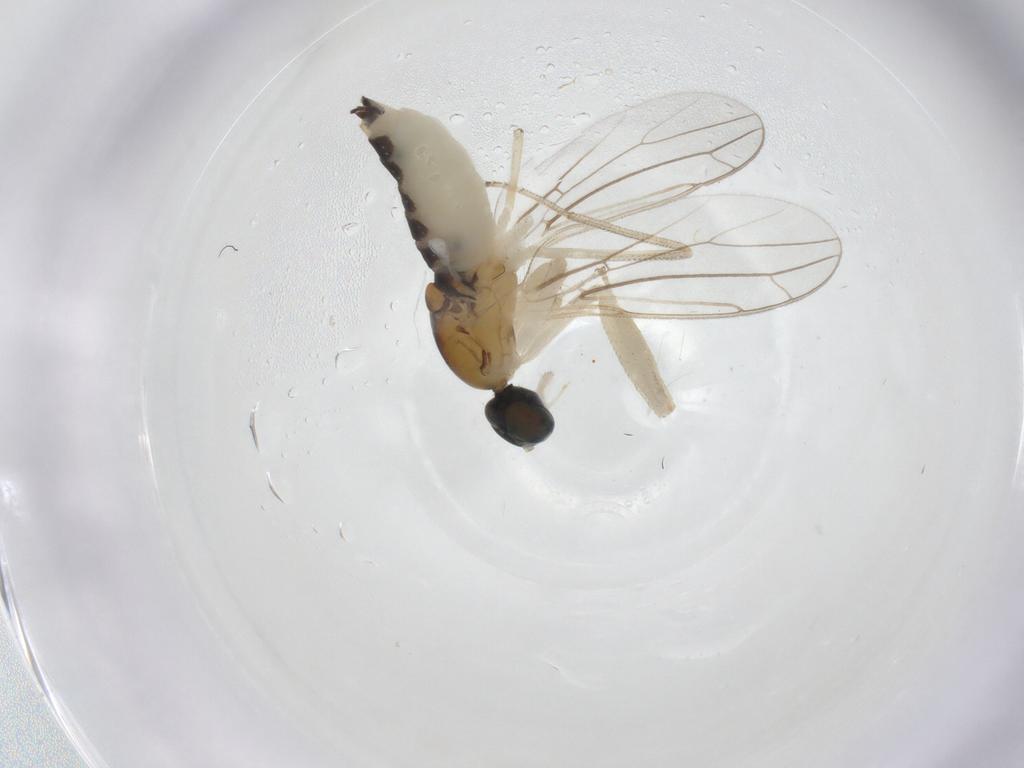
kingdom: Animalia
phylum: Arthropoda
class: Insecta
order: Diptera
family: Empididae
